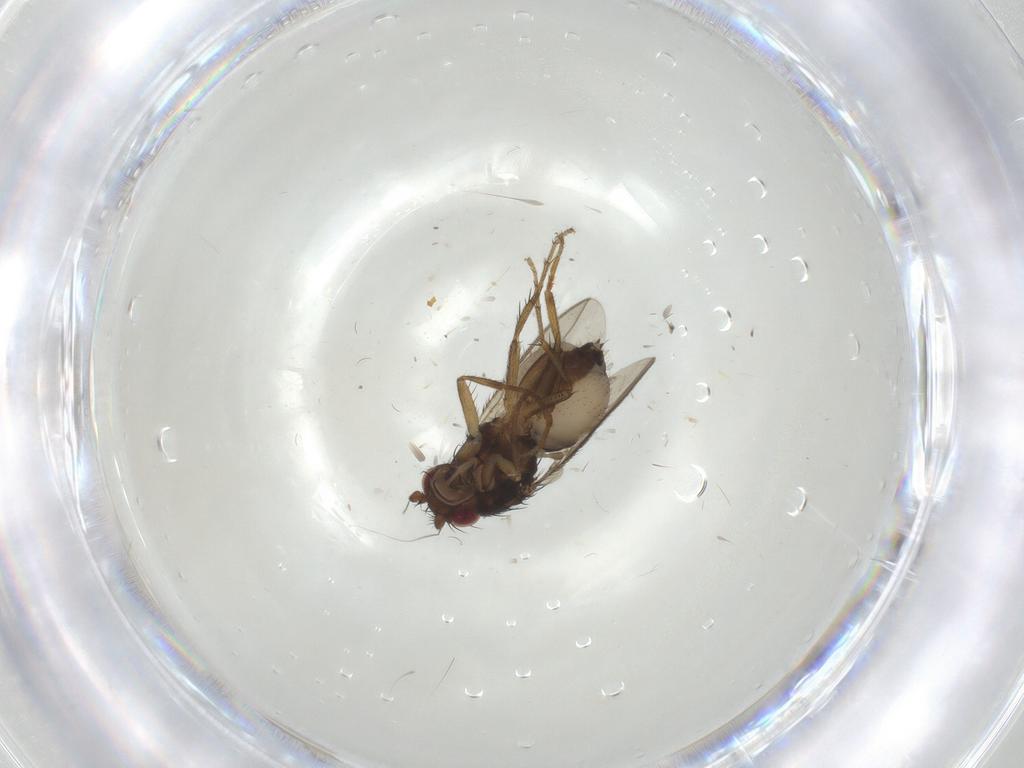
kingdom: Animalia
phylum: Arthropoda
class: Insecta
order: Diptera
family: Sphaeroceridae
